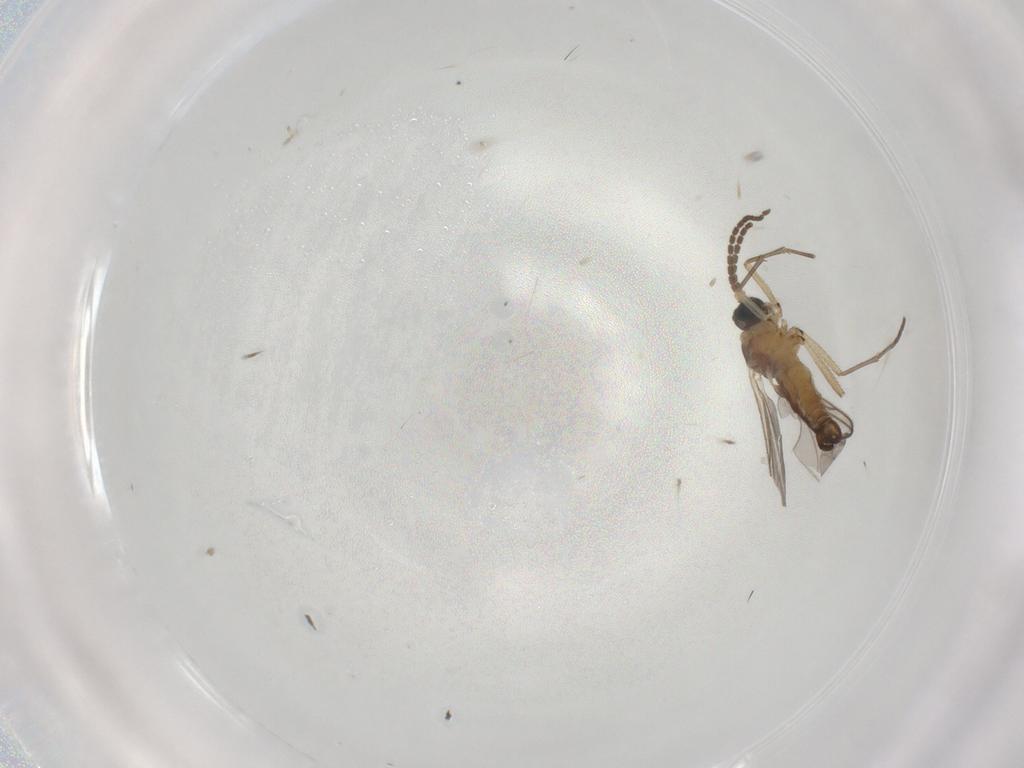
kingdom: Animalia
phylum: Arthropoda
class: Insecta
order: Diptera
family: Sciaridae
